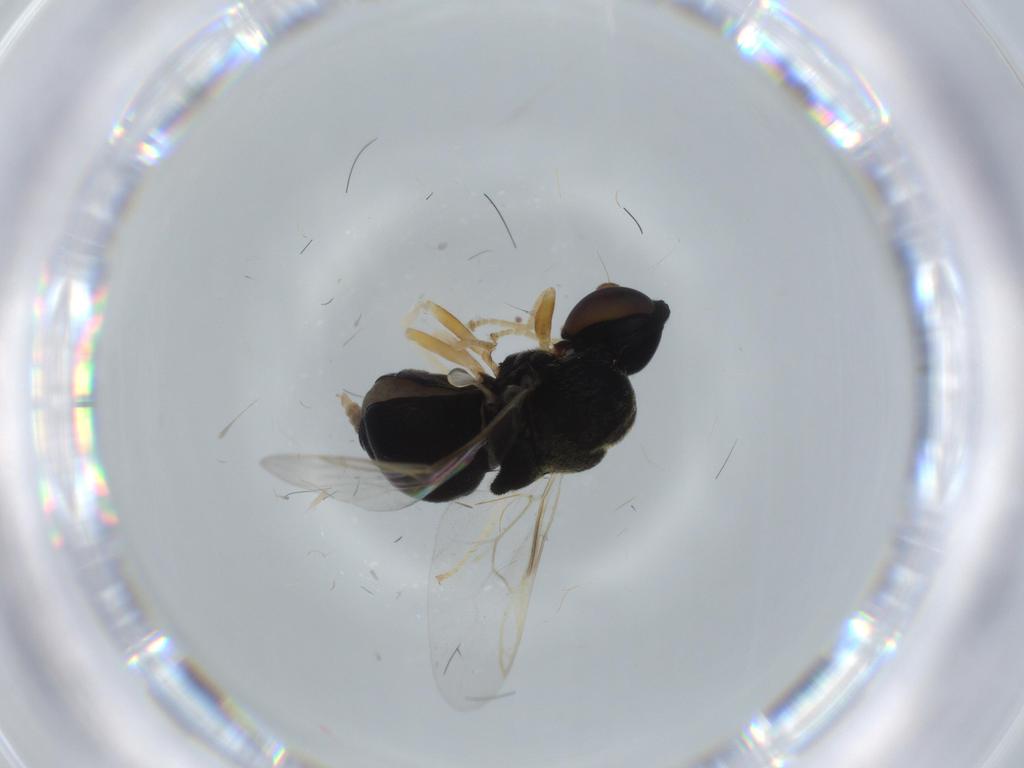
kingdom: Animalia
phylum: Arthropoda
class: Insecta
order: Diptera
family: Stratiomyidae
